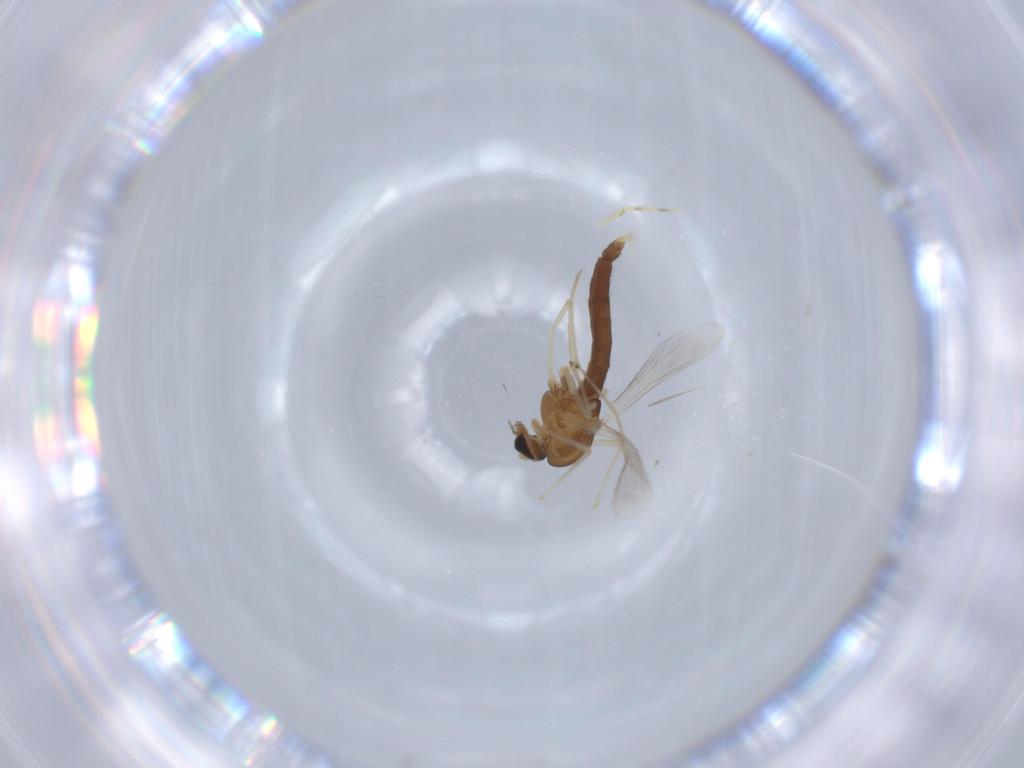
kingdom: Animalia
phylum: Arthropoda
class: Insecta
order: Diptera
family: Chironomidae
